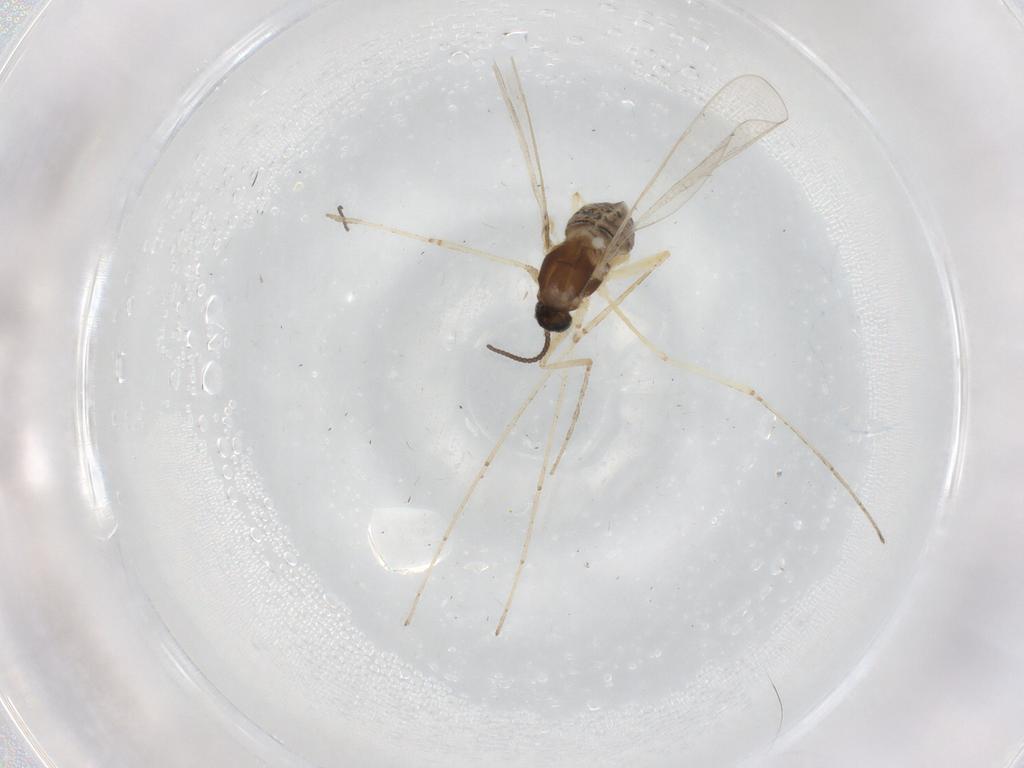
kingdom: Animalia
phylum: Arthropoda
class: Insecta
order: Diptera
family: Cecidomyiidae
